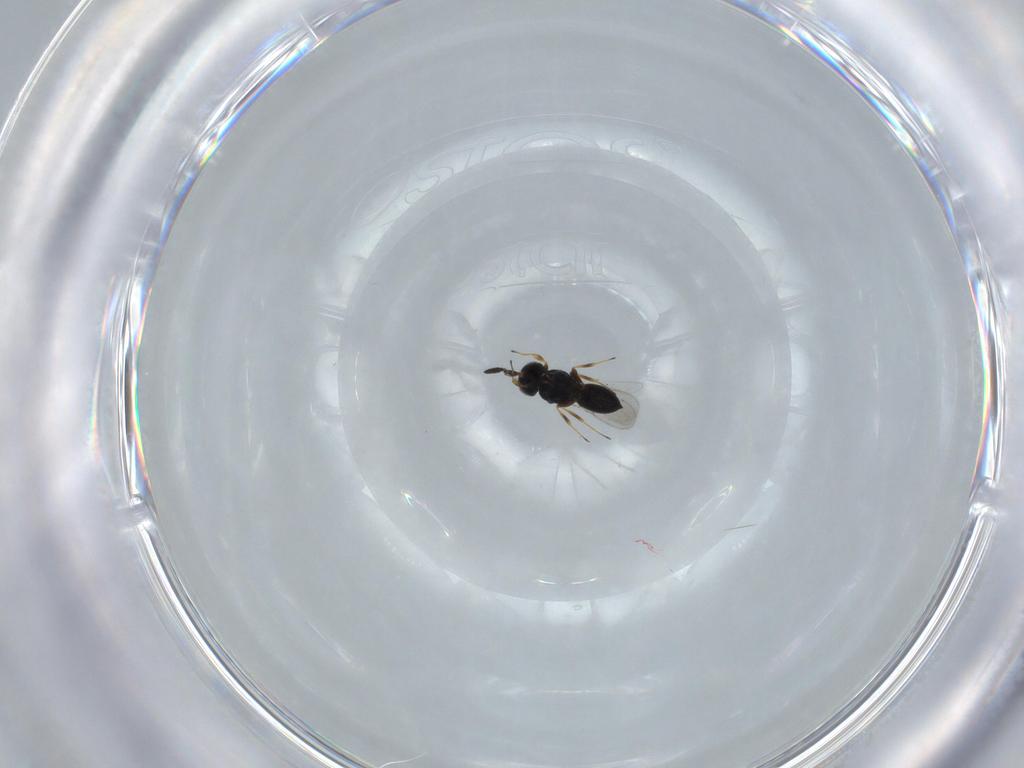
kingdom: Animalia
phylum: Arthropoda
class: Insecta
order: Hymenoptera
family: Scelionidae
